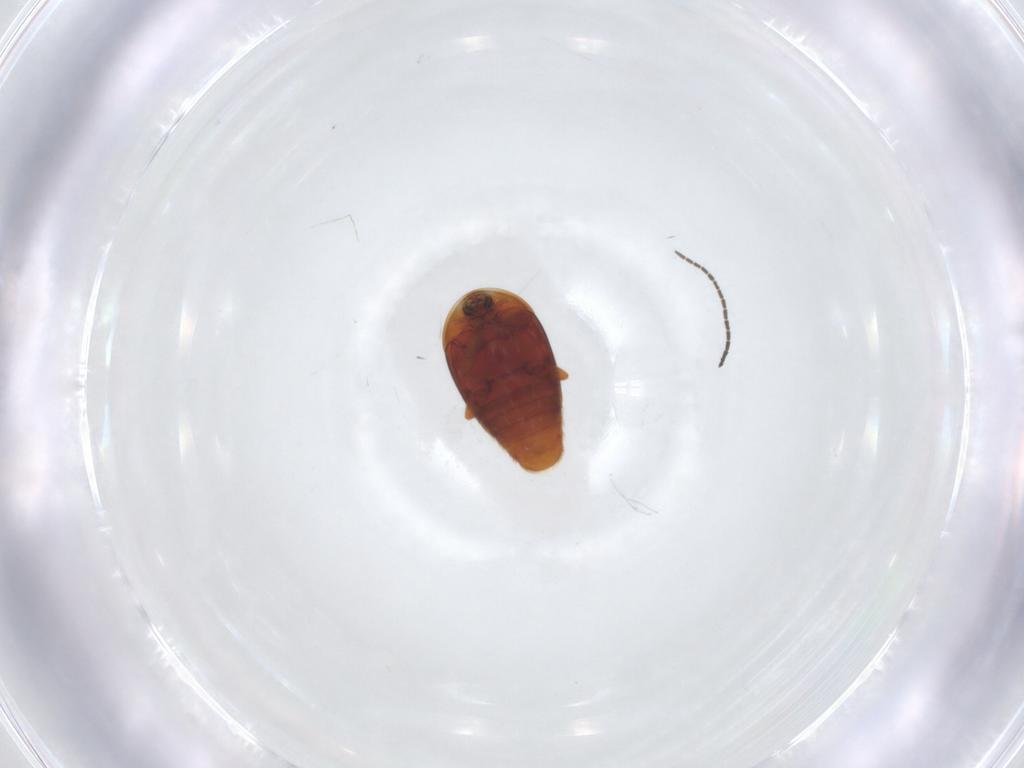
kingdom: Animalia
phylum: Arthropoda
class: Insecta
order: Coleoptera
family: Corylophidae
